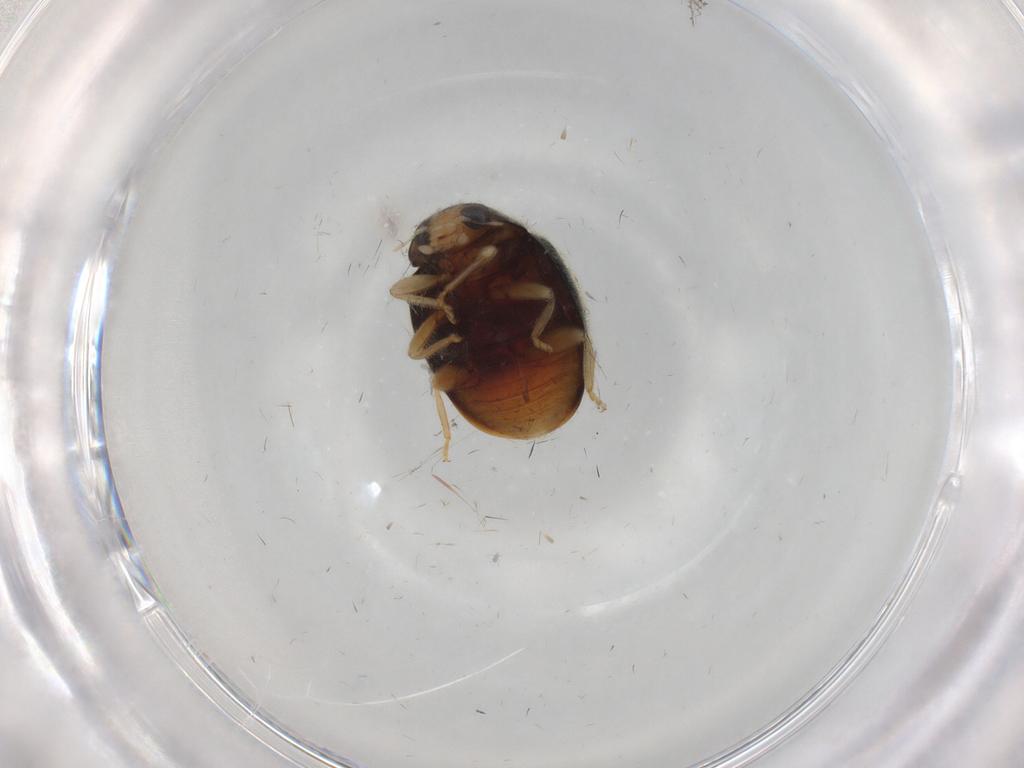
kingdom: Animalia
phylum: Arthropoda
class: Insecta
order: Coleoptera
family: Coccinellidae
